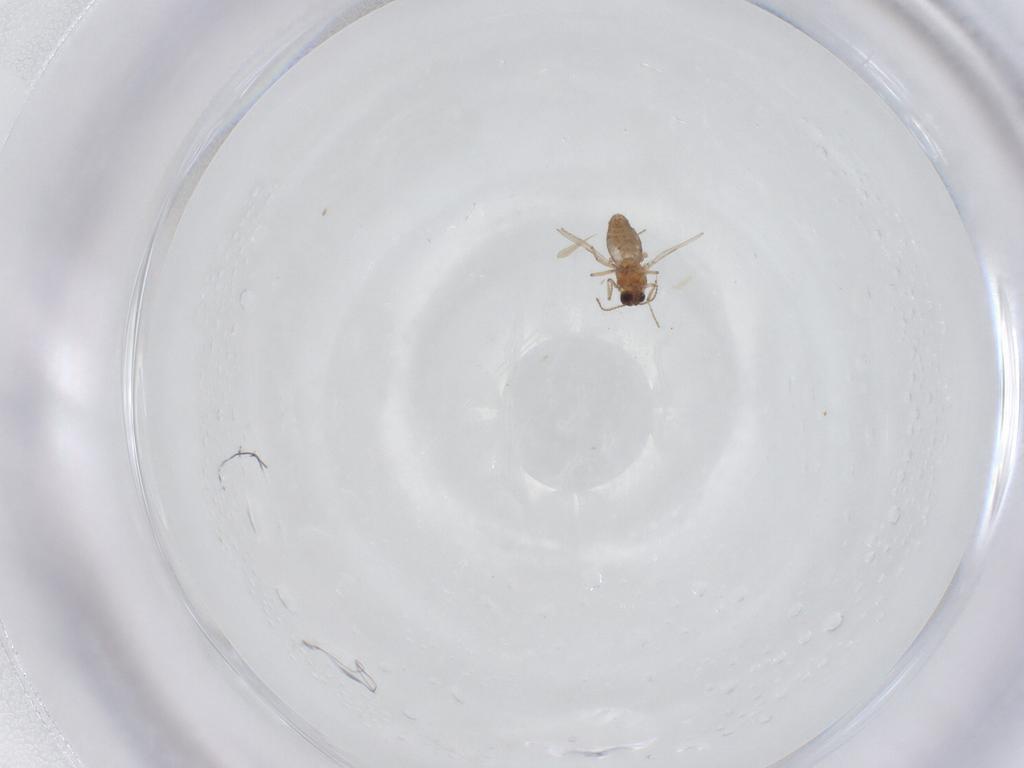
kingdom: Animalia
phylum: Arthropoda
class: Insecta
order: Diptera
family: Ceratopogonidae
